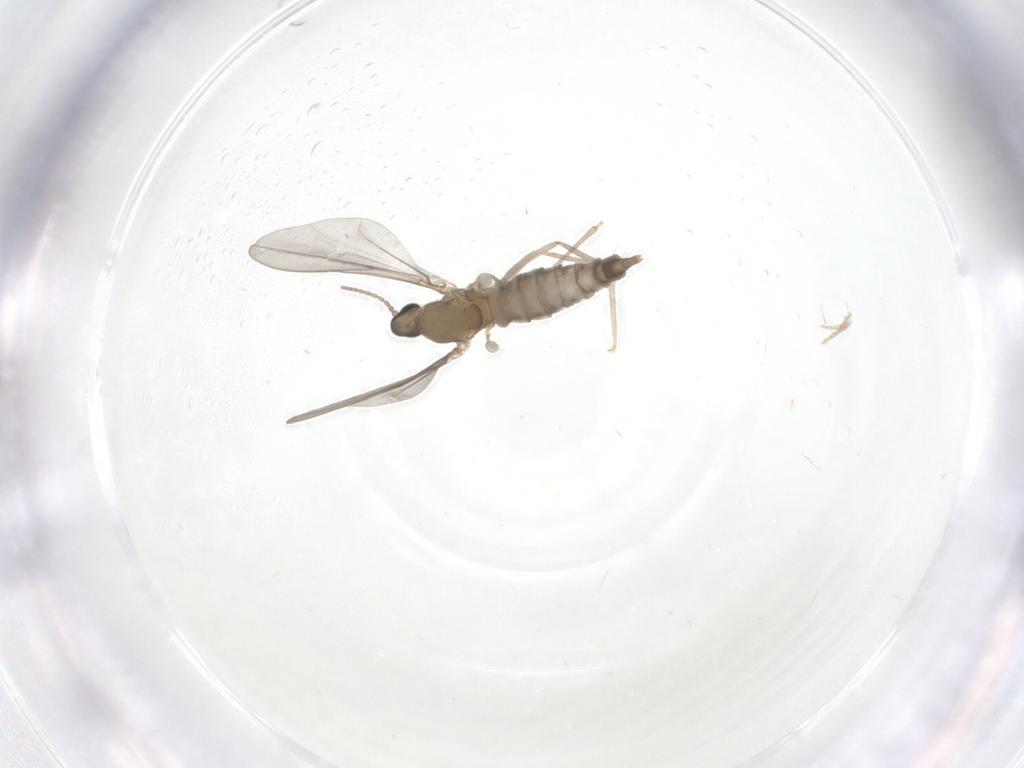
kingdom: Animalia
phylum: Arthropoda
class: Insecta
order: Diptera
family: Cecidomyiidae
